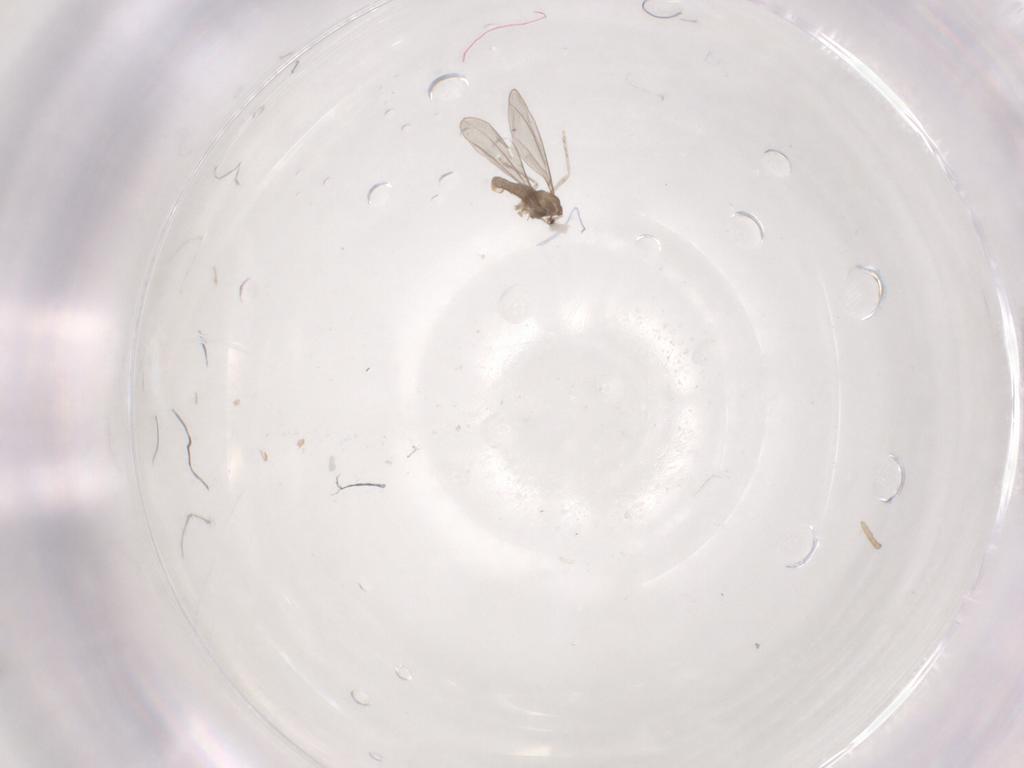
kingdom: Animalia
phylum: Arthropoda
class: Insecta
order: Diptera
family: Cecidomyiidae
